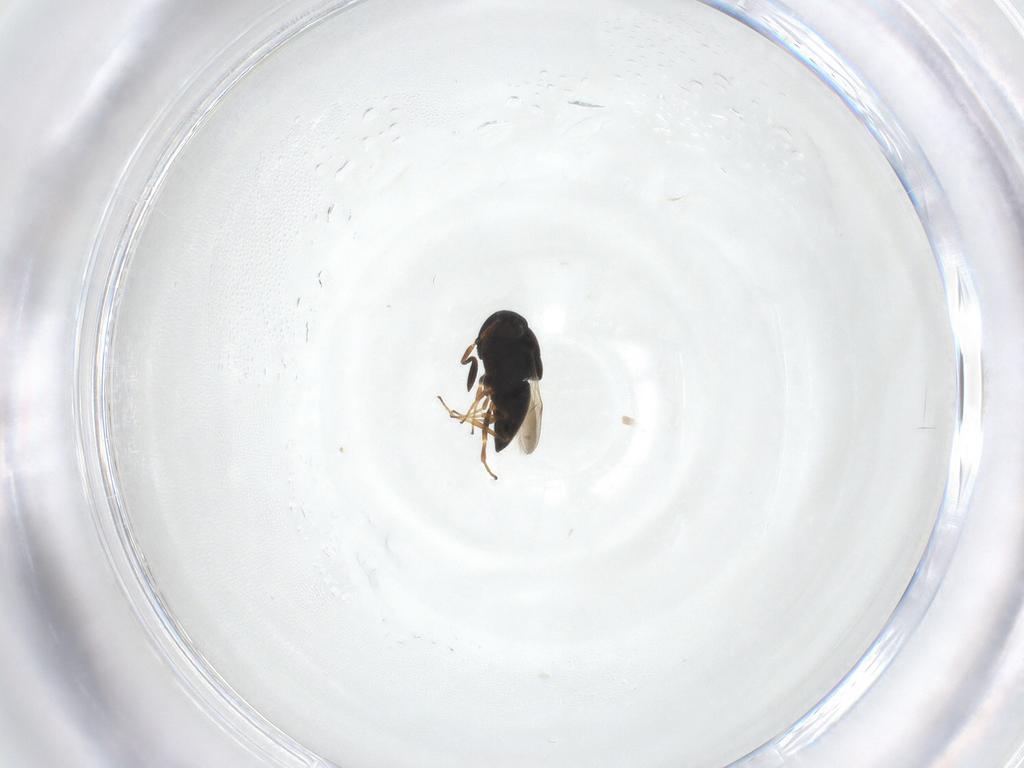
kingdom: Animalia
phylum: Arthropoda
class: Insecta
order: Hymenoptera
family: Scelionidae
